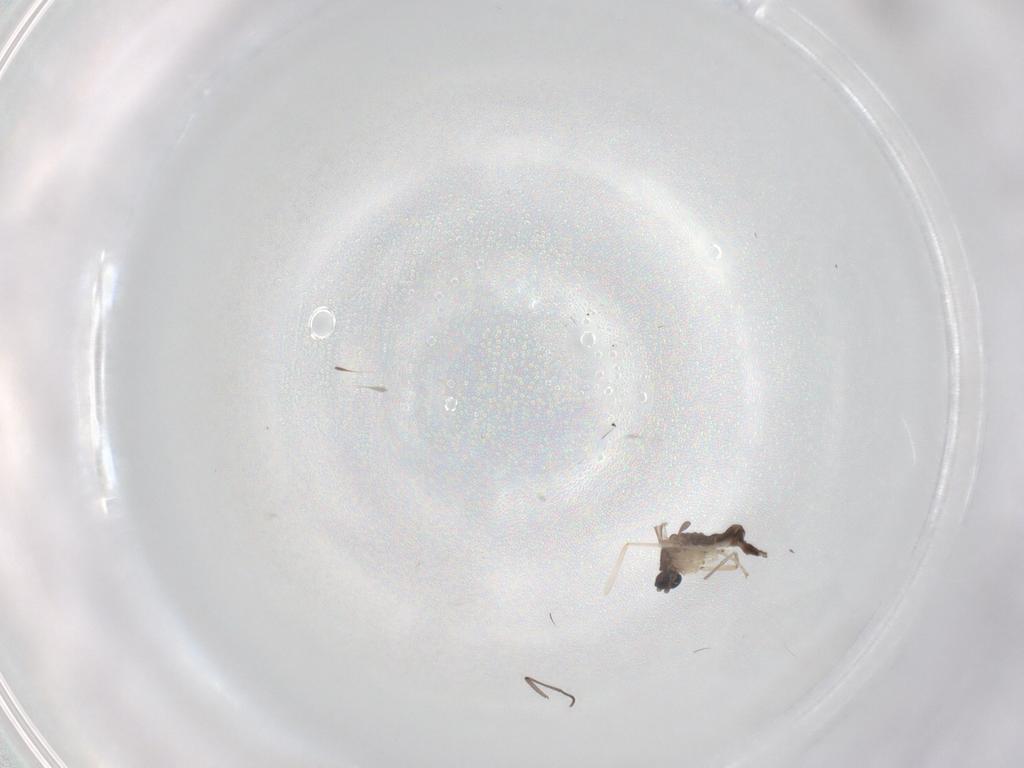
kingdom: Animalia
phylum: Arthropoda
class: Insecta
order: Diptera
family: Sciaridae
